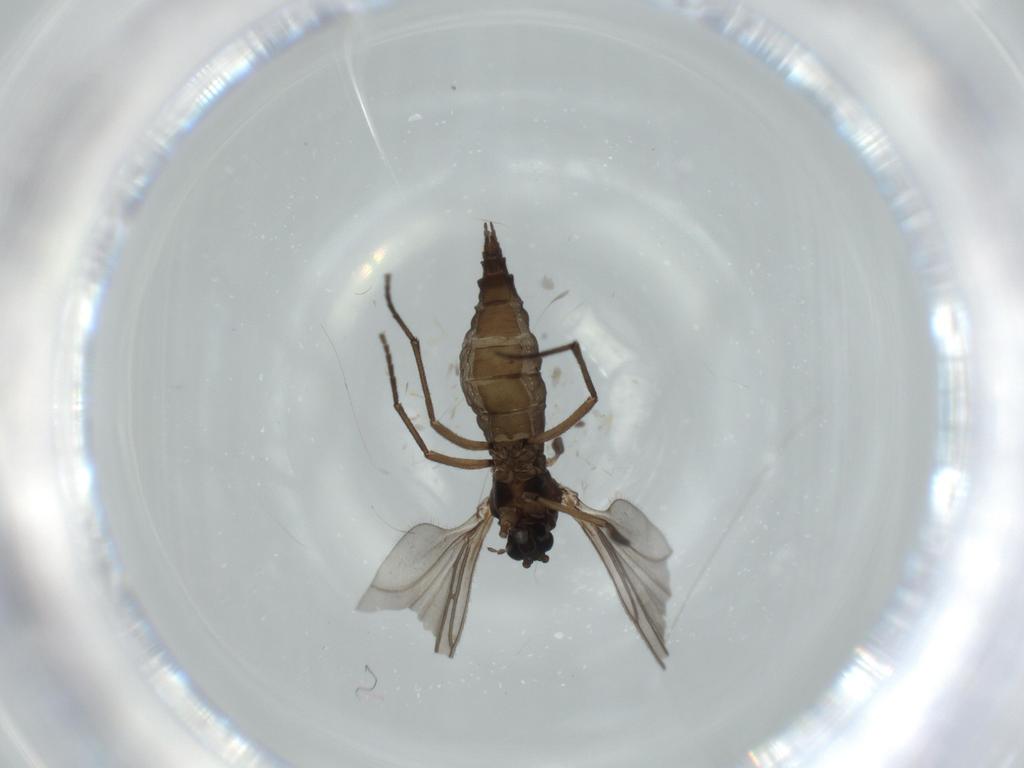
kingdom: Animalia
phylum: Arthropoda
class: Insecta
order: Diptera
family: Sciaridae
